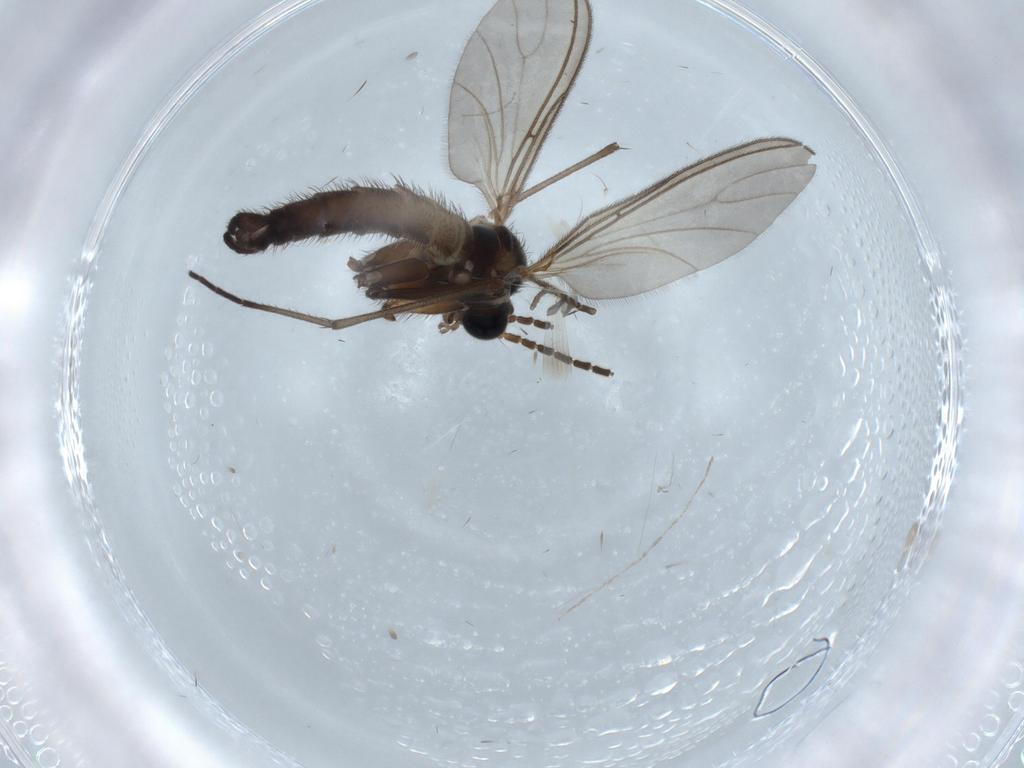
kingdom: Animalia
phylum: Arthropoda
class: Insecta
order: Diptera
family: Sciaridae
